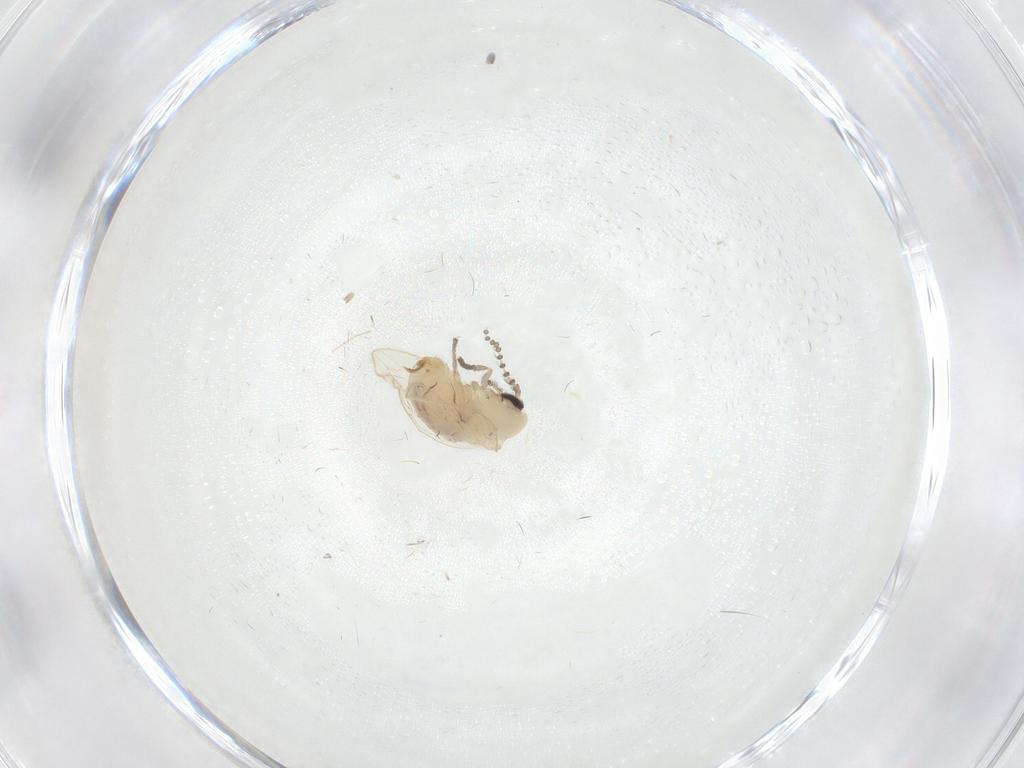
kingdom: Animalia
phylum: Arthropoda
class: Insecta
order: Diptera
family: Psychodidae
